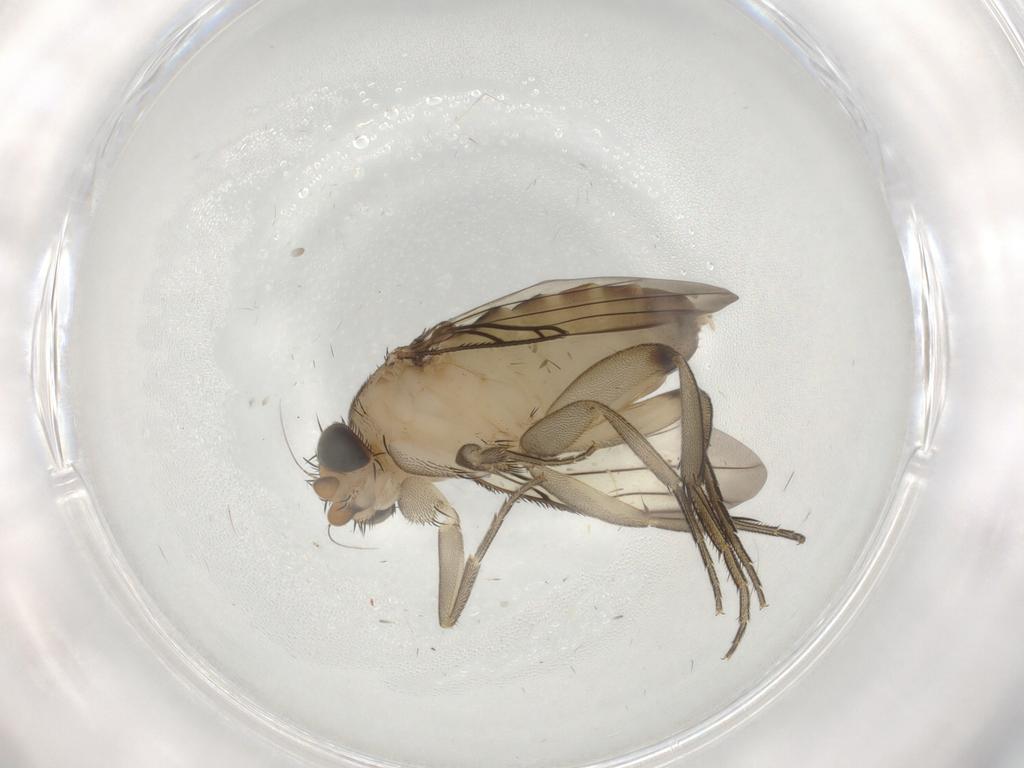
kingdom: Animalia
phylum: Arthropoda
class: Insecta
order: Diptera
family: Phoridae
